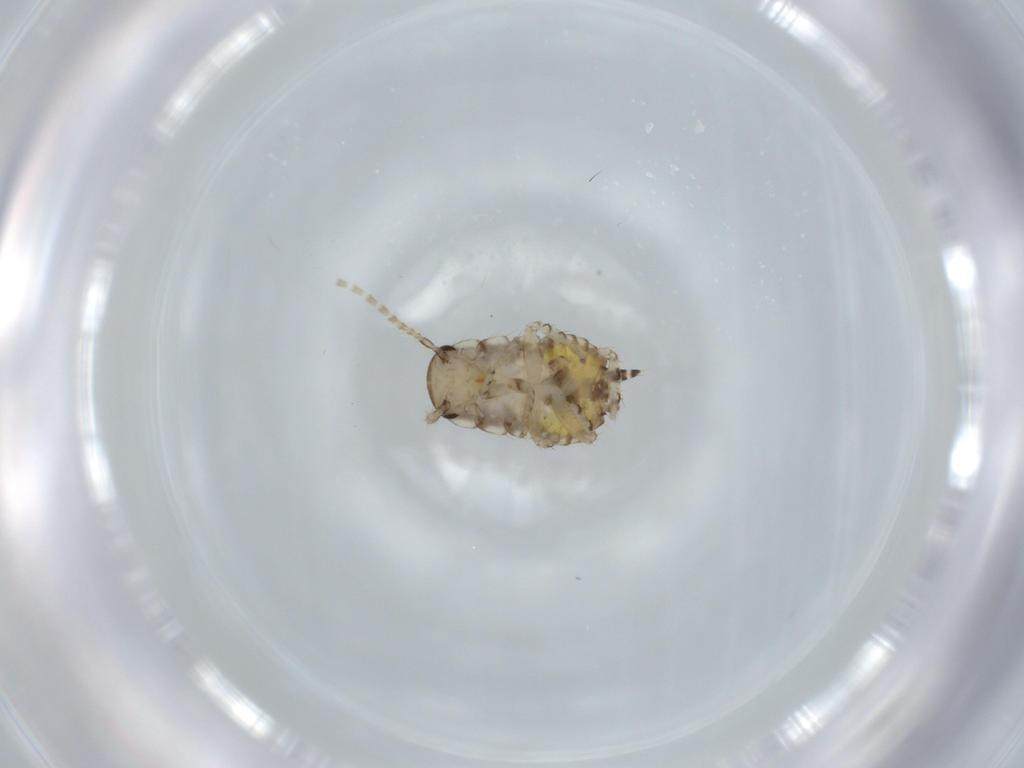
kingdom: Animalia
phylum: Arthropoda
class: Insecta
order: Blattodea
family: Ectobiidae
